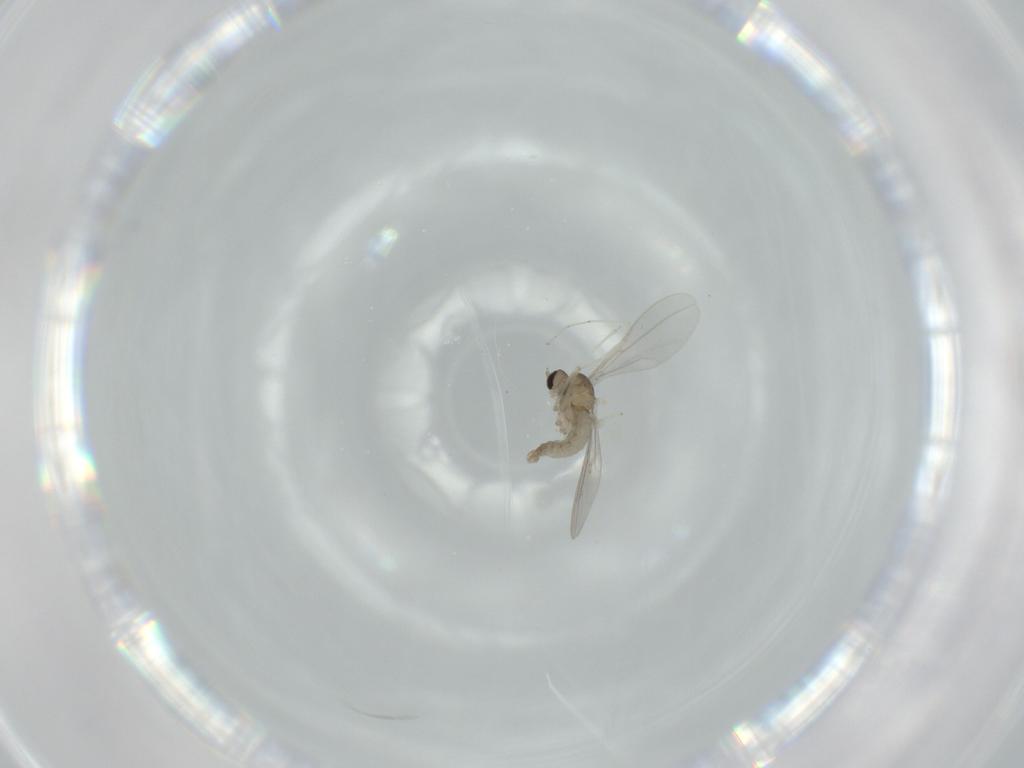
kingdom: Animalia
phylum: Arthropoda
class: Insecta
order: Diptera
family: Cecidomyiidae
